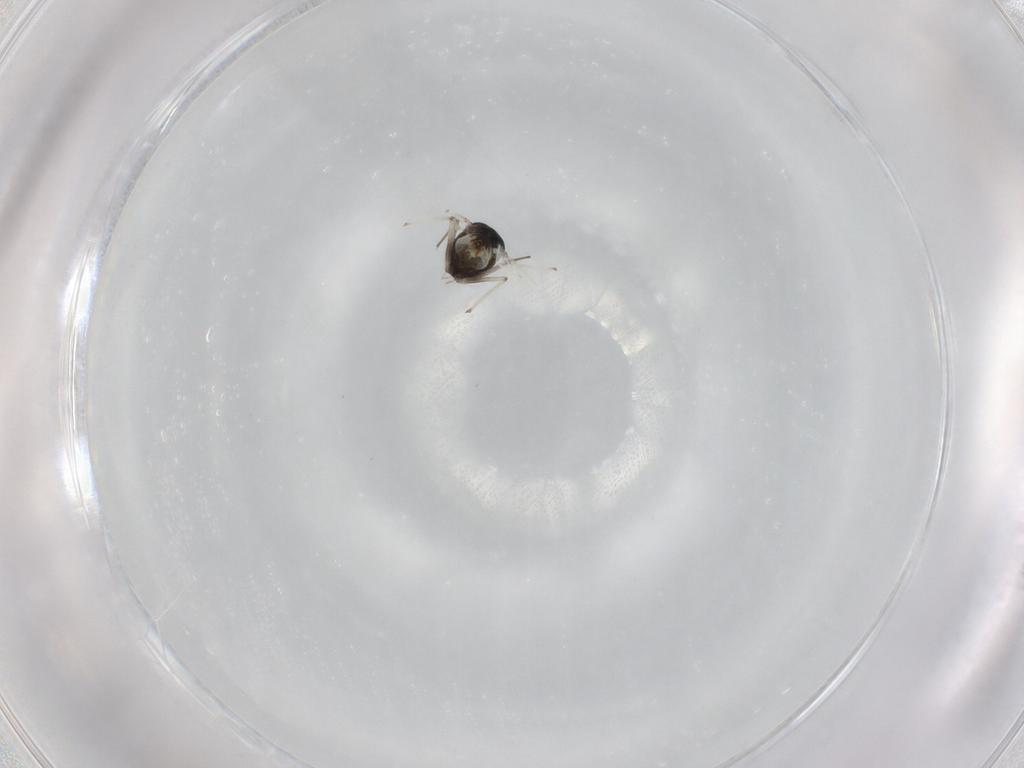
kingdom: Animalia
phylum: Arthropoda
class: Insecta
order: Diptera
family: Chironomidae
